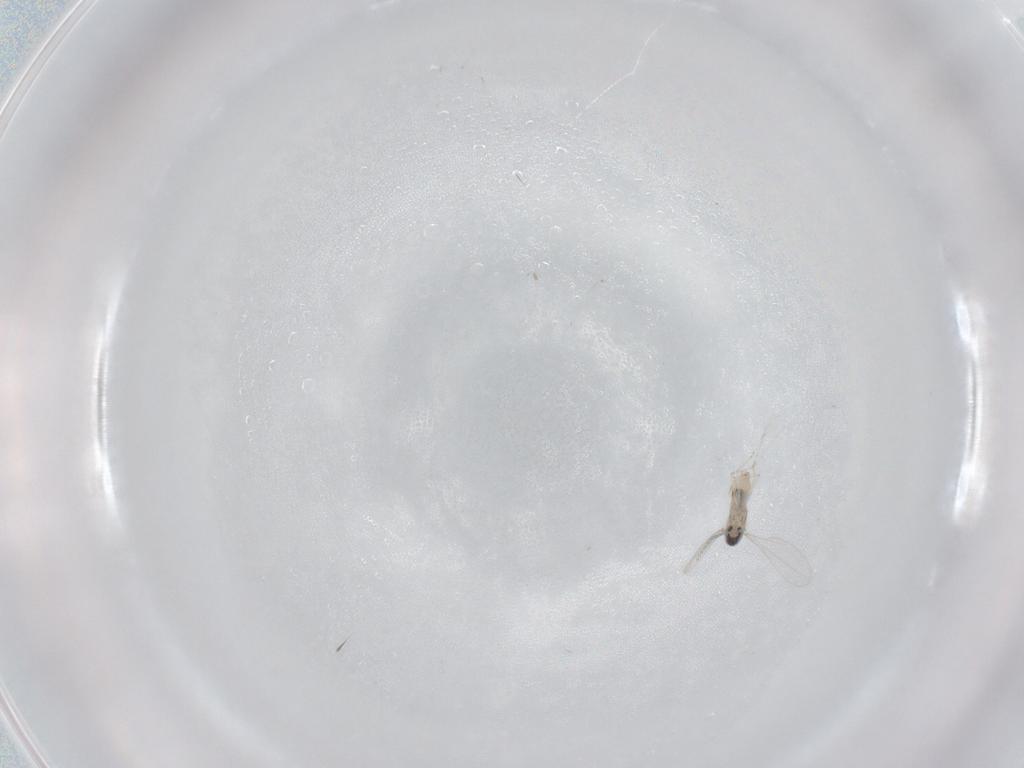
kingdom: Animalia
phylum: Arthropoda
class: Insecta
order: Diptera
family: Cecidomyiidae
